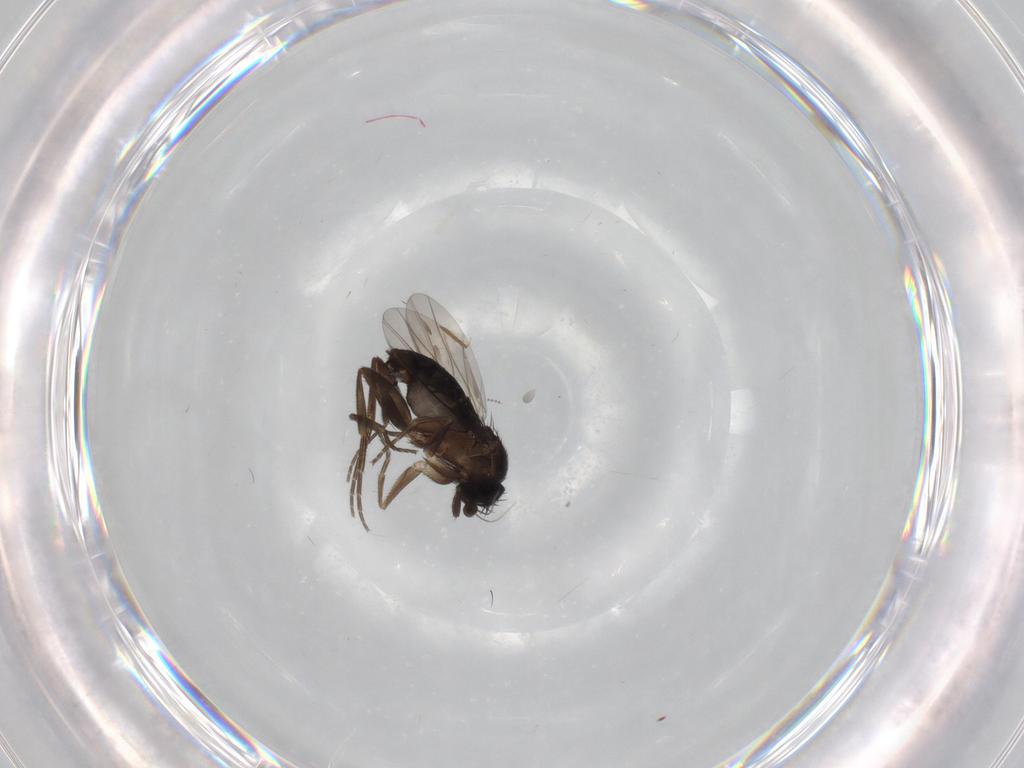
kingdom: Animalia
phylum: Arthropoda
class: Insecta
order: Diptera
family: Phoridae
